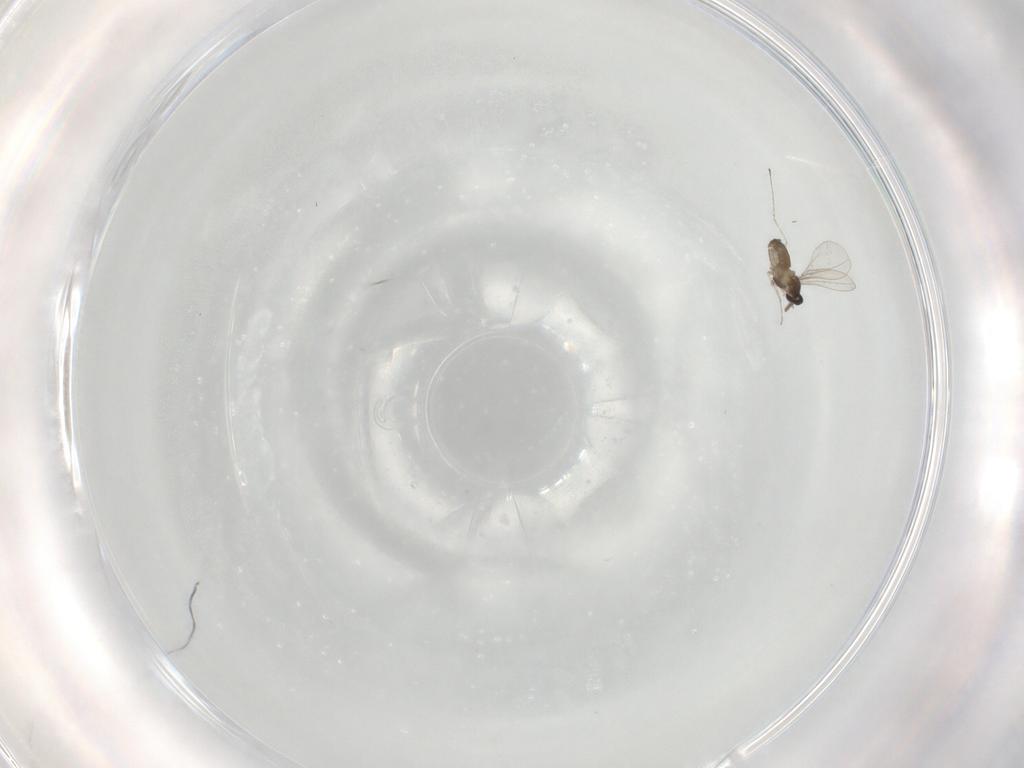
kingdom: Animalia
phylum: Arthropoda
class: Insecta
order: Diptera
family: Cecidomyiidae
